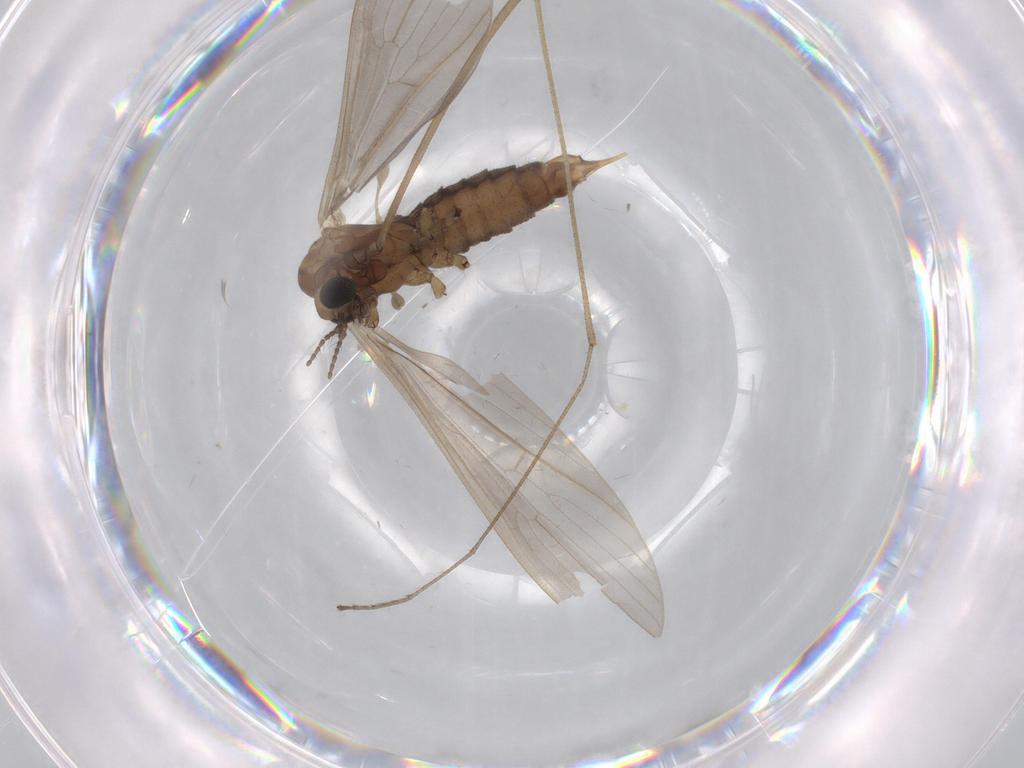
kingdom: Animalia
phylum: Arthropoda
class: Insecta
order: Diptera
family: Limoniidae
